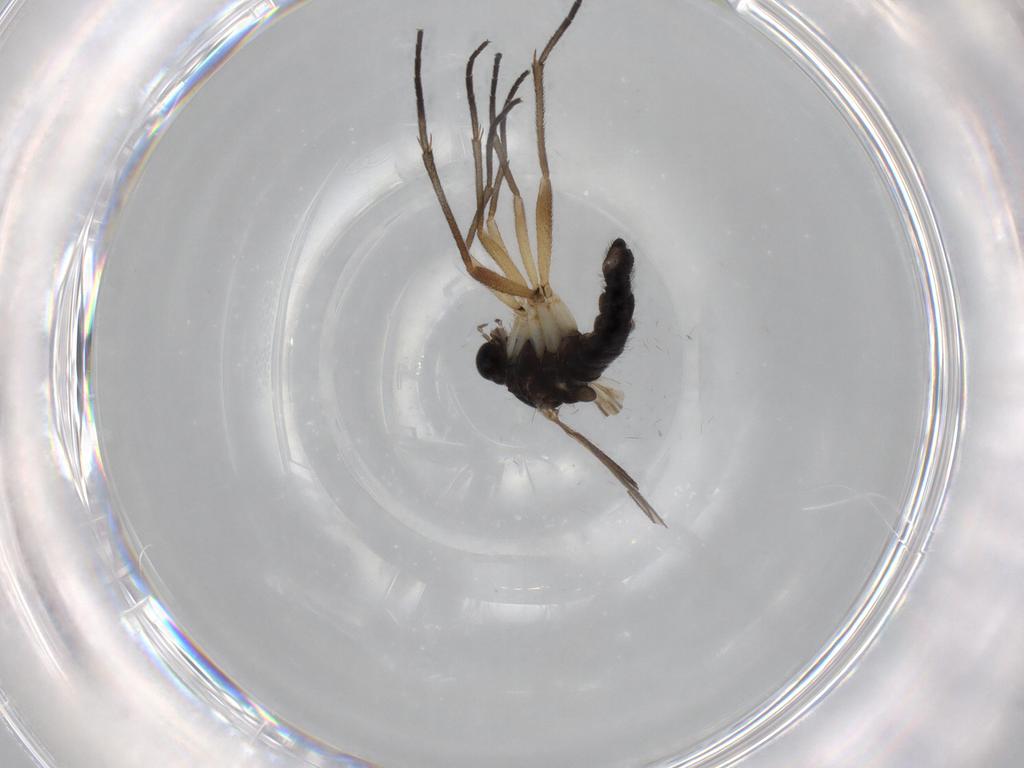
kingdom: Animalia
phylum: Arthropoda
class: Insecta
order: Diptera
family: Sciaridae
